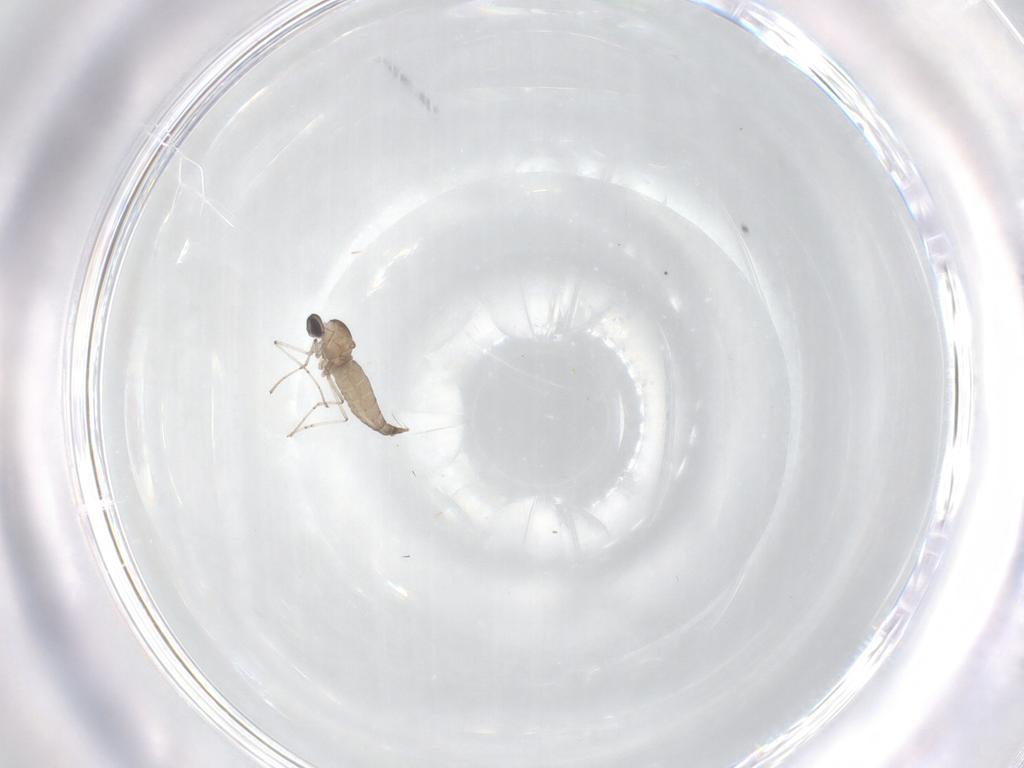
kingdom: Animalia
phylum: Arthropoda
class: Insecta
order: Diptera
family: Cecidomyiidae
